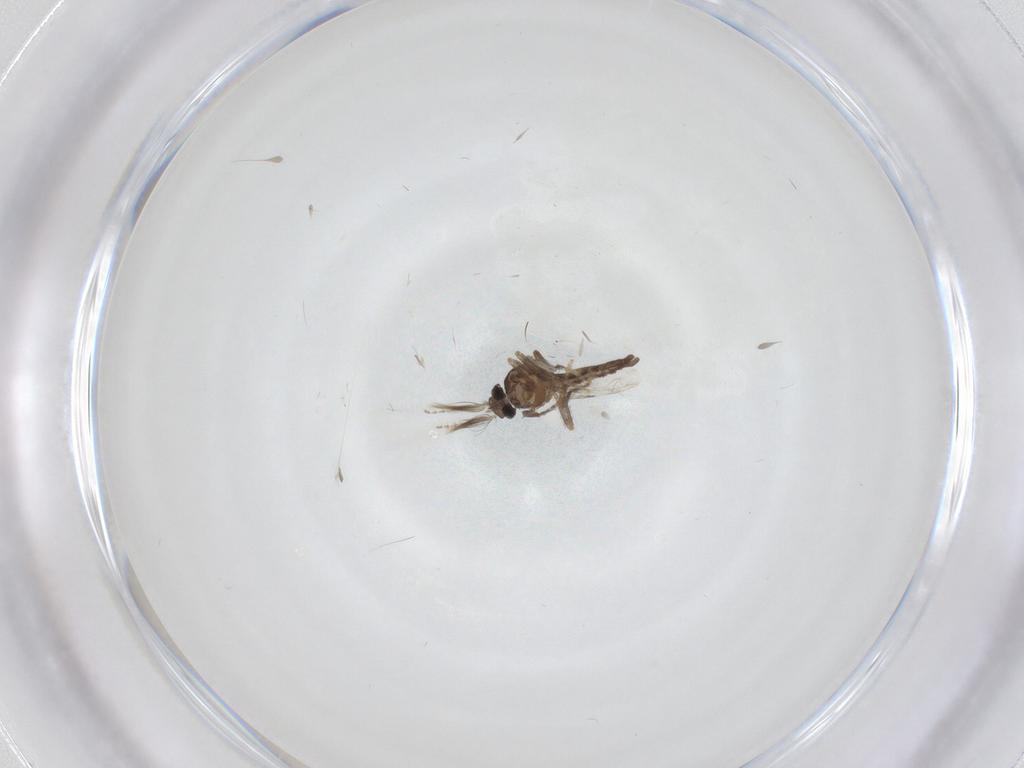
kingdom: Animalia
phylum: Arthropoda
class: Insecta
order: Diptera
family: Ceratopogonidae
